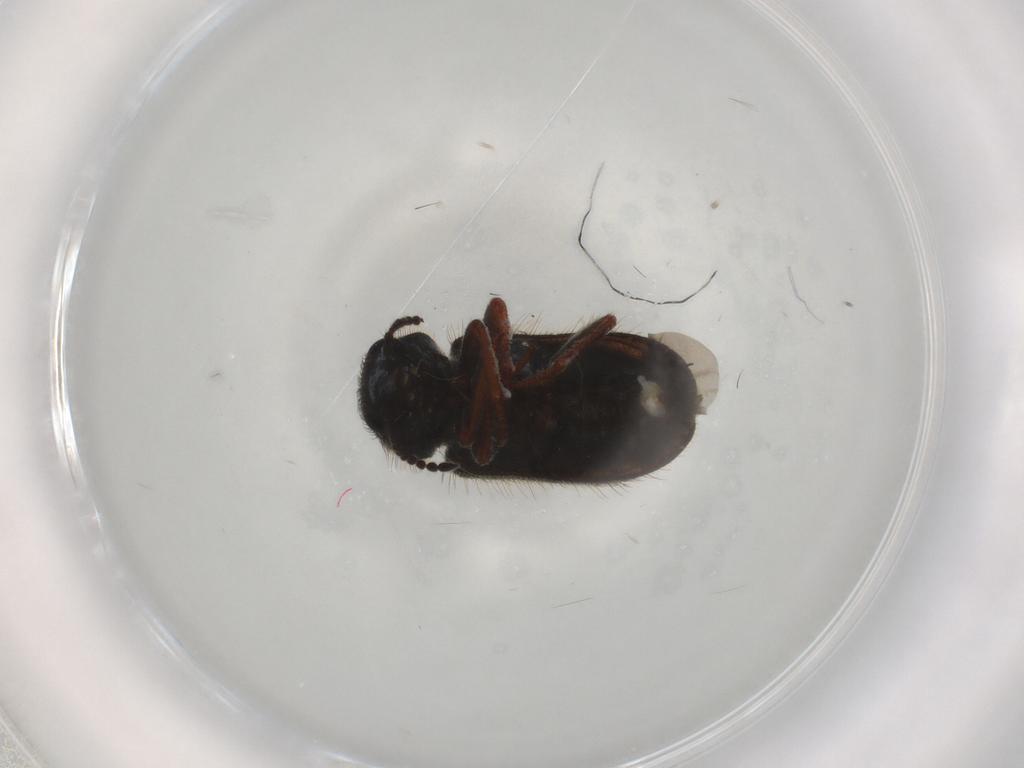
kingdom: Animalia
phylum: Arthropoda
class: Insecta
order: Coleoptera
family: Melyridae
